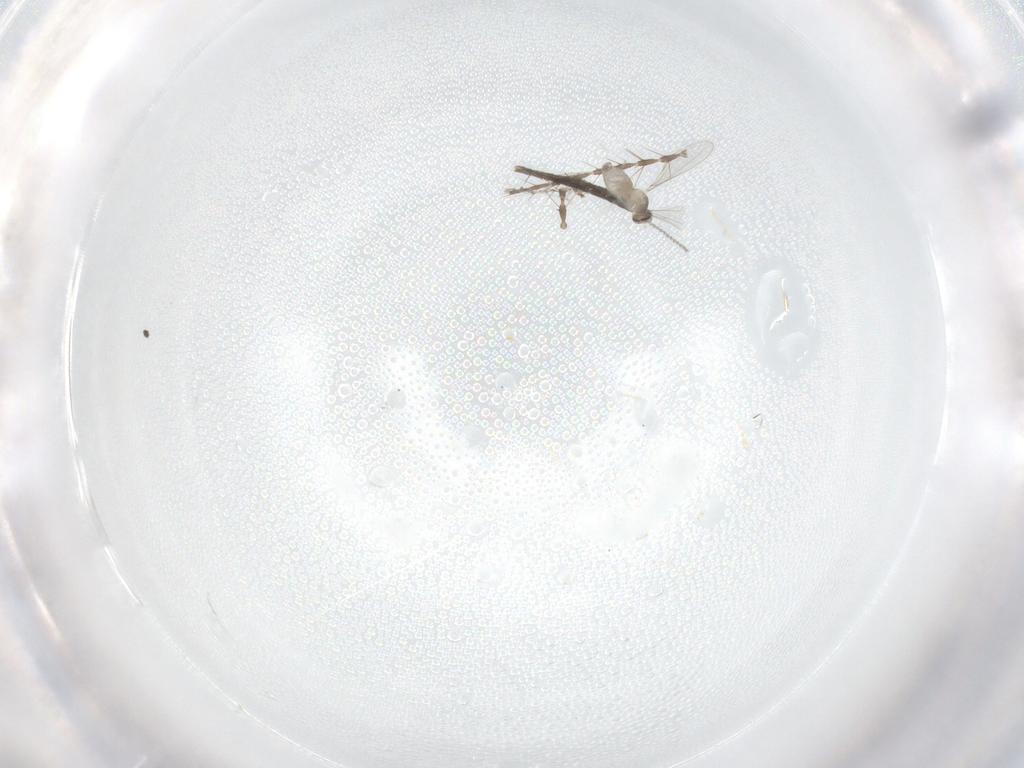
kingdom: Animalia
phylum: Arthropoda
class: Insecta
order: Diptera
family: Cecidomyiidae
